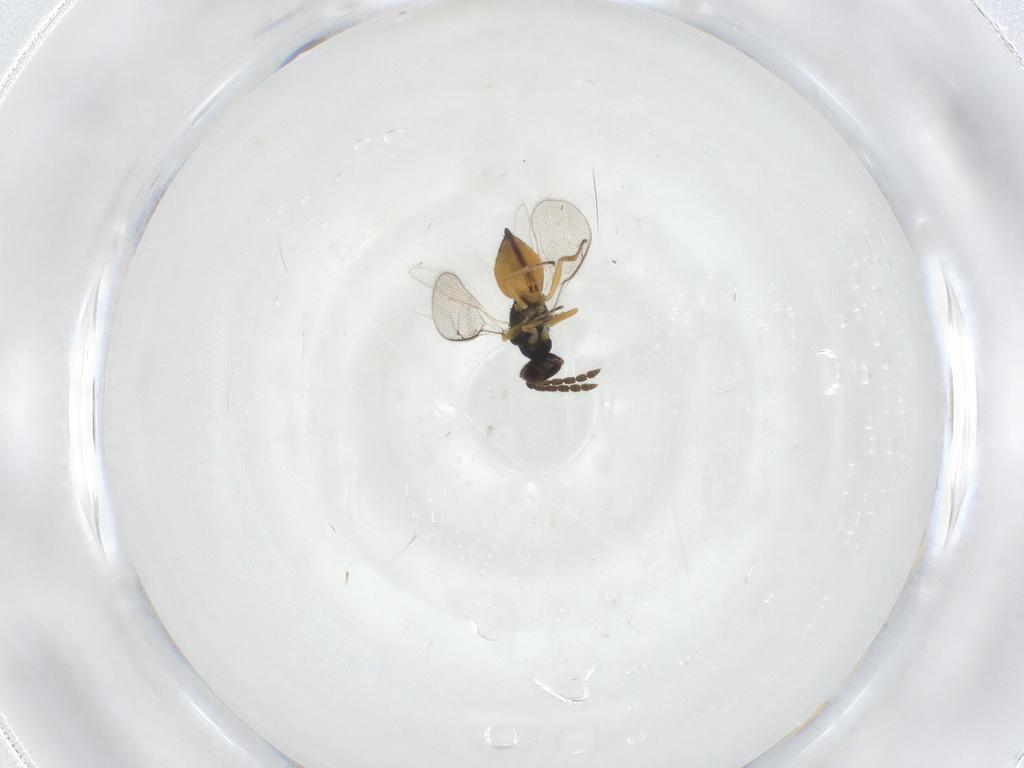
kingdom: Animalia
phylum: Arthropoda
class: Insecta
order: Hymenoptera
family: Eulophidae
